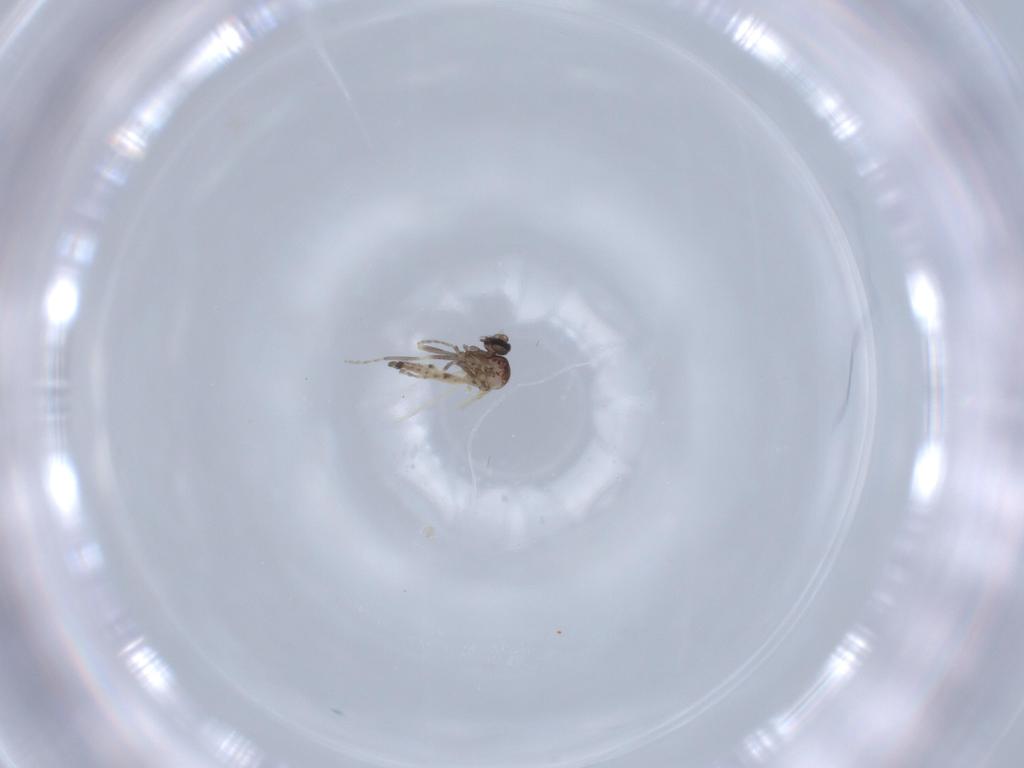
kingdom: Animalia
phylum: Arthropoda
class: Insecta
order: Diptera
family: Ceratopogonidae
